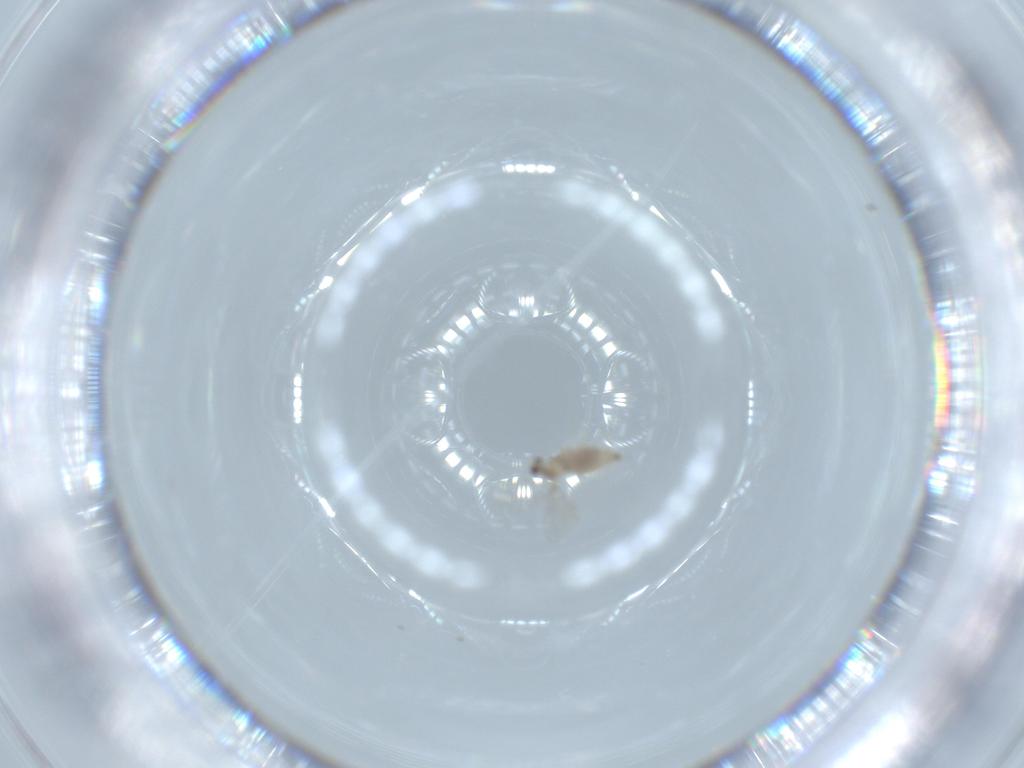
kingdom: Animalia
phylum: Arthropoda
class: Insecta
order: Diptera
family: Cecidomyiidae
